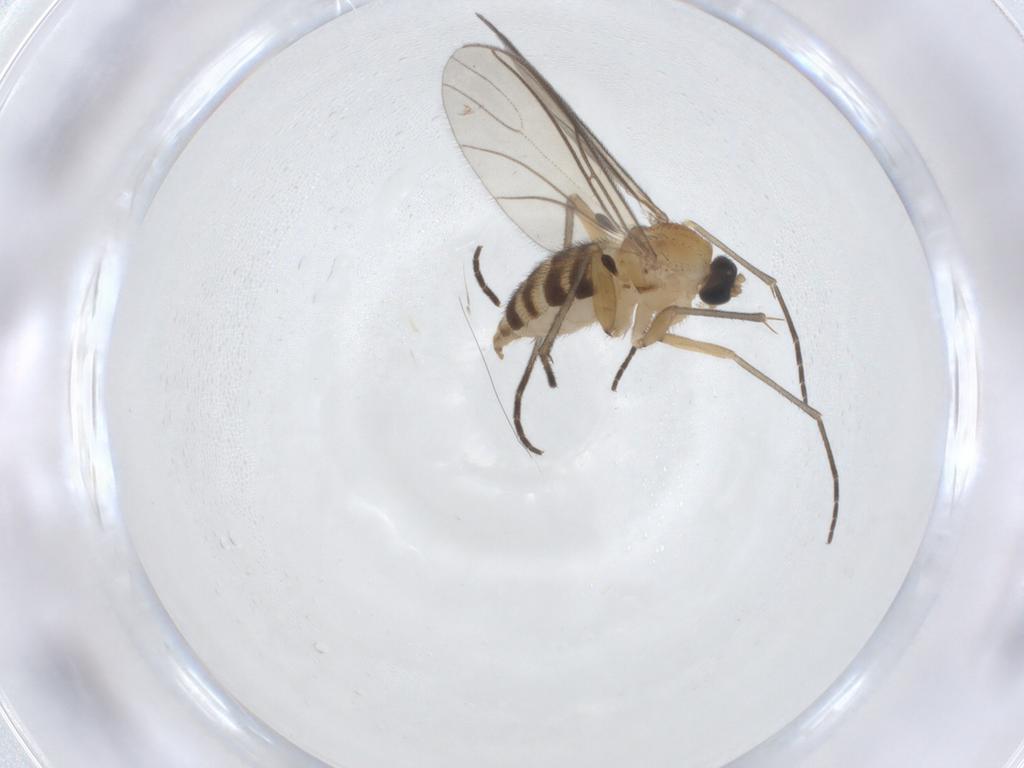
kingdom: Animalia
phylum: Arthropoda
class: Insecta
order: Diptera
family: Sciaridae
